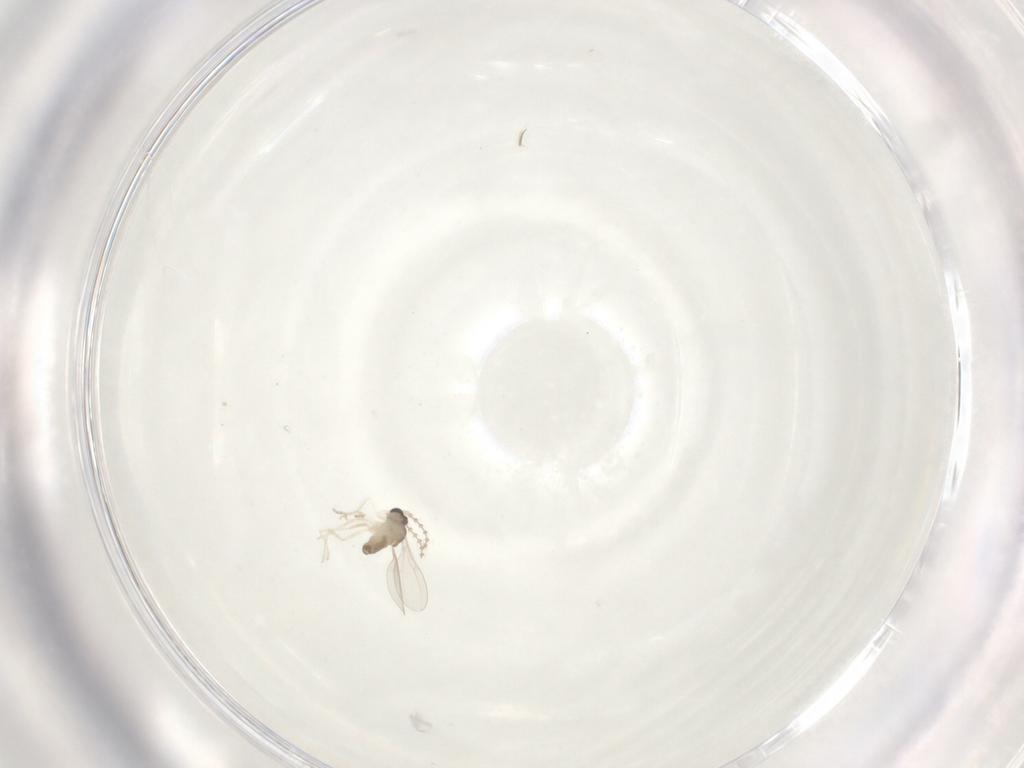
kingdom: Animalia
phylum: Arthropoda
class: Insecta
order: Diptera
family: Cecidomyiidae
